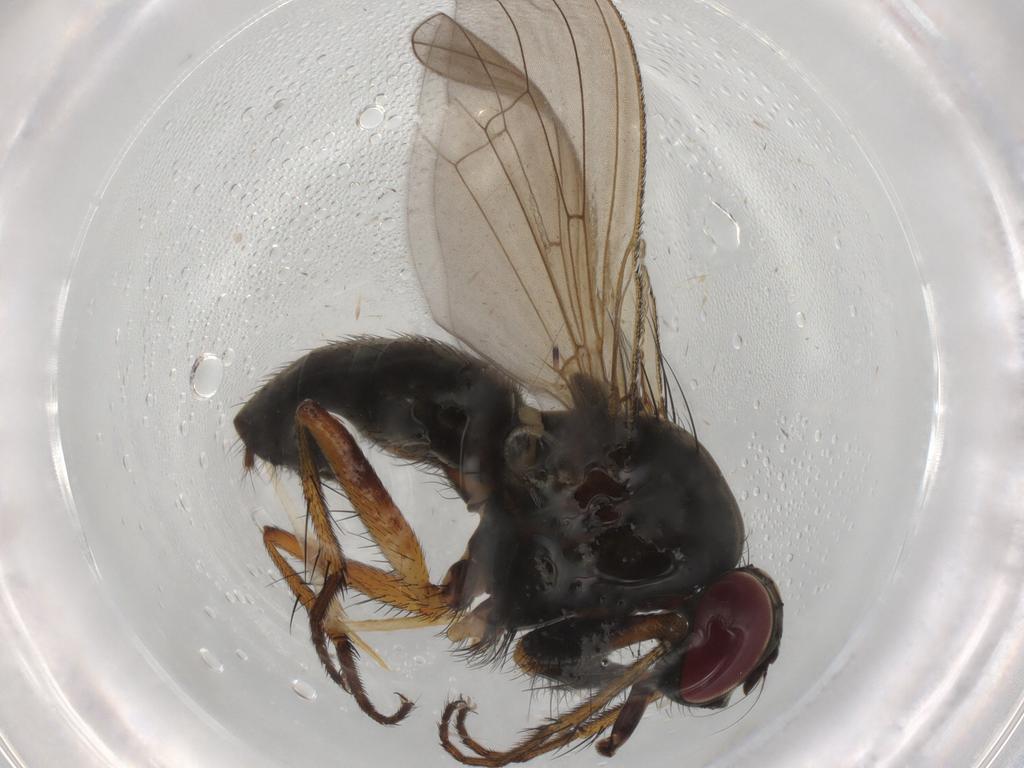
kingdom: Animalia
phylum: Arthropoda
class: Insecta
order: Diptera
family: Muscidae
